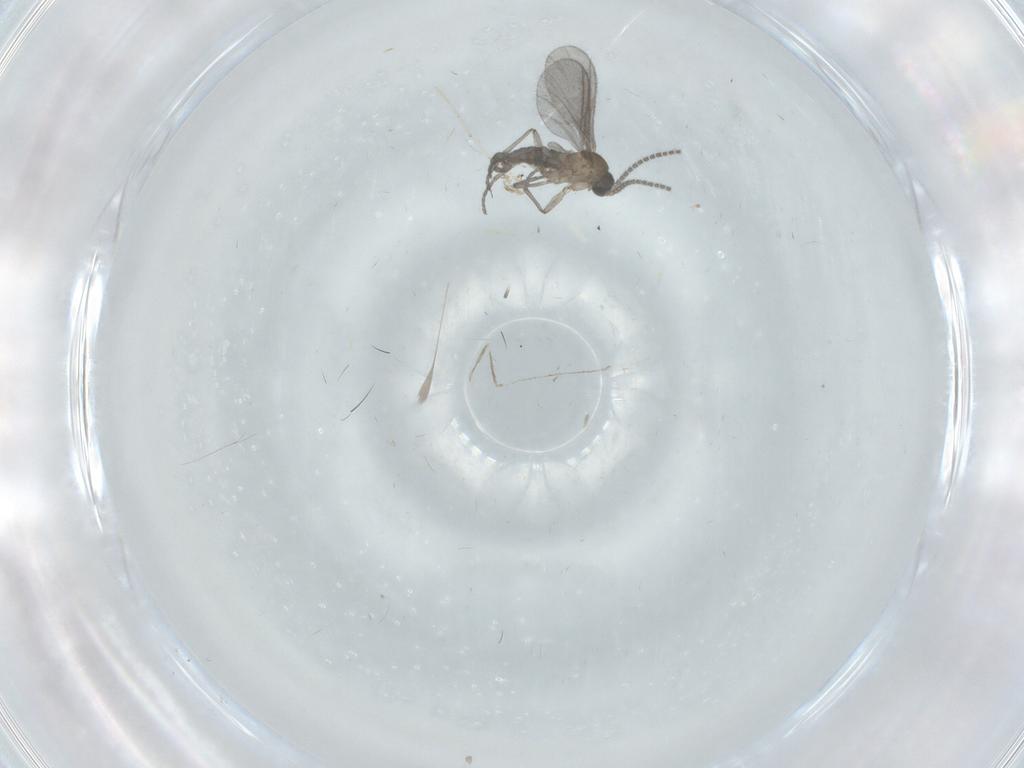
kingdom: Animalia
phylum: Arthropoda
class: Insecta
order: Diptera
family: Sciaridae
